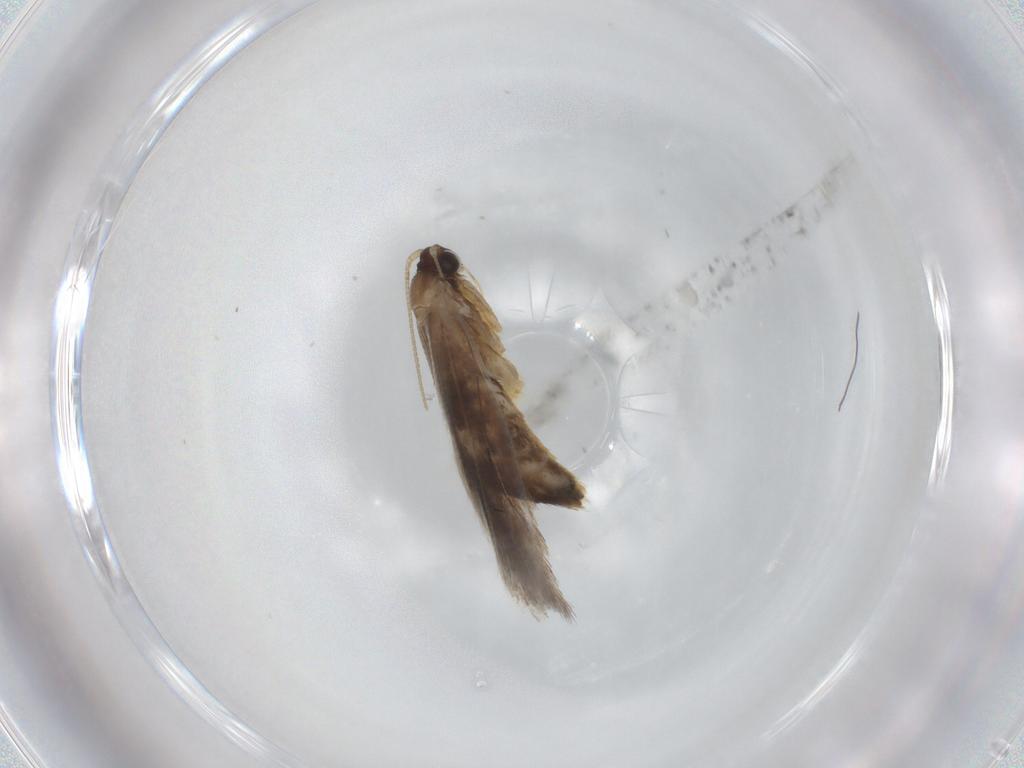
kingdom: Animalia
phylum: Arthropoda
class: Insecta
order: Lepidoptera
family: Tineidae
